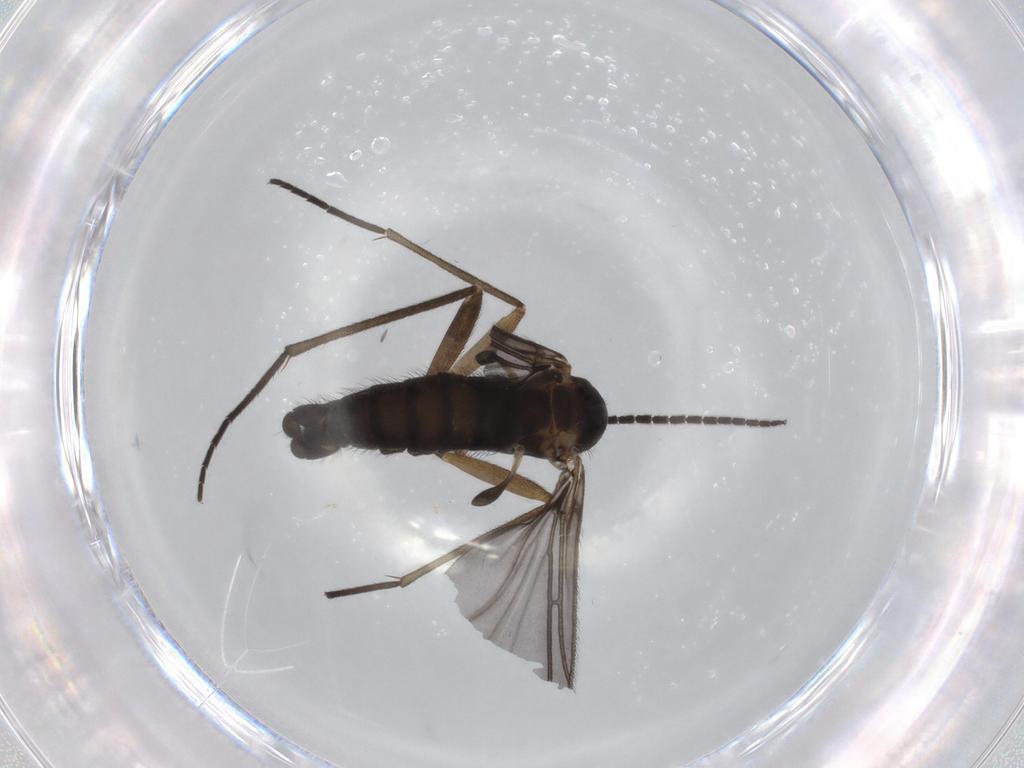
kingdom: Animalia
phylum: Arthropoda
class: Insecta
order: Diptera
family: Sciaridae
